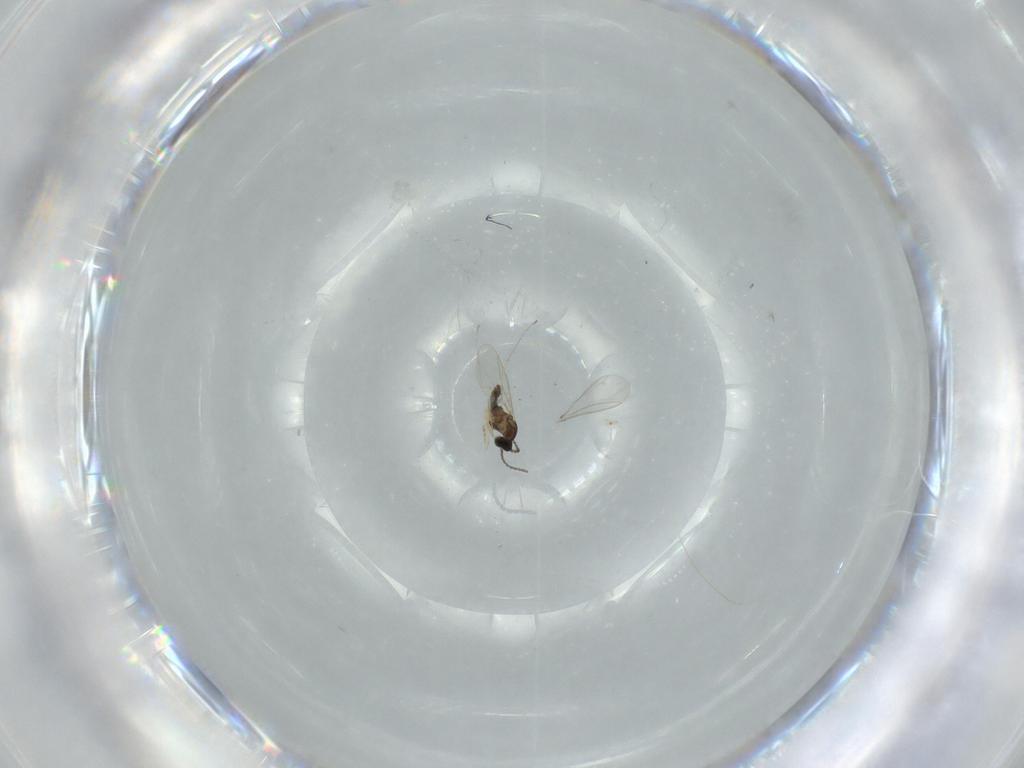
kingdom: Animalia
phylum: Arthropoda
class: Insecta
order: Diptera
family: Cecidomyiidae
